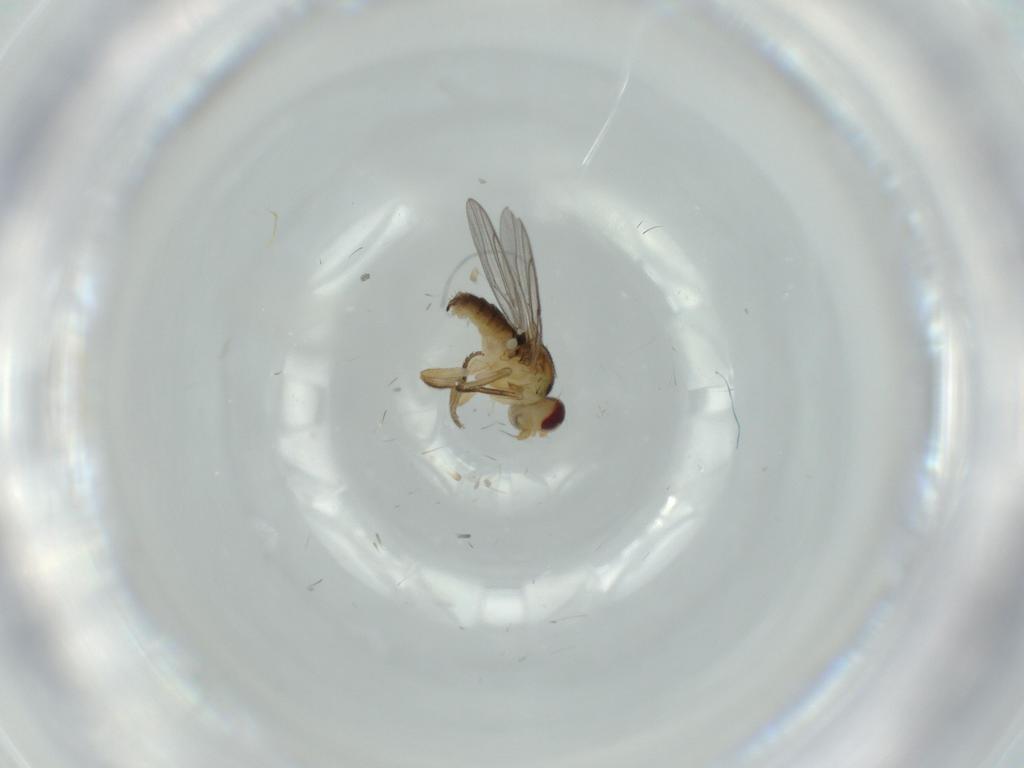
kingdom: Animalia
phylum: Arthropoda
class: Insecta
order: Diptera
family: Chloropidae
